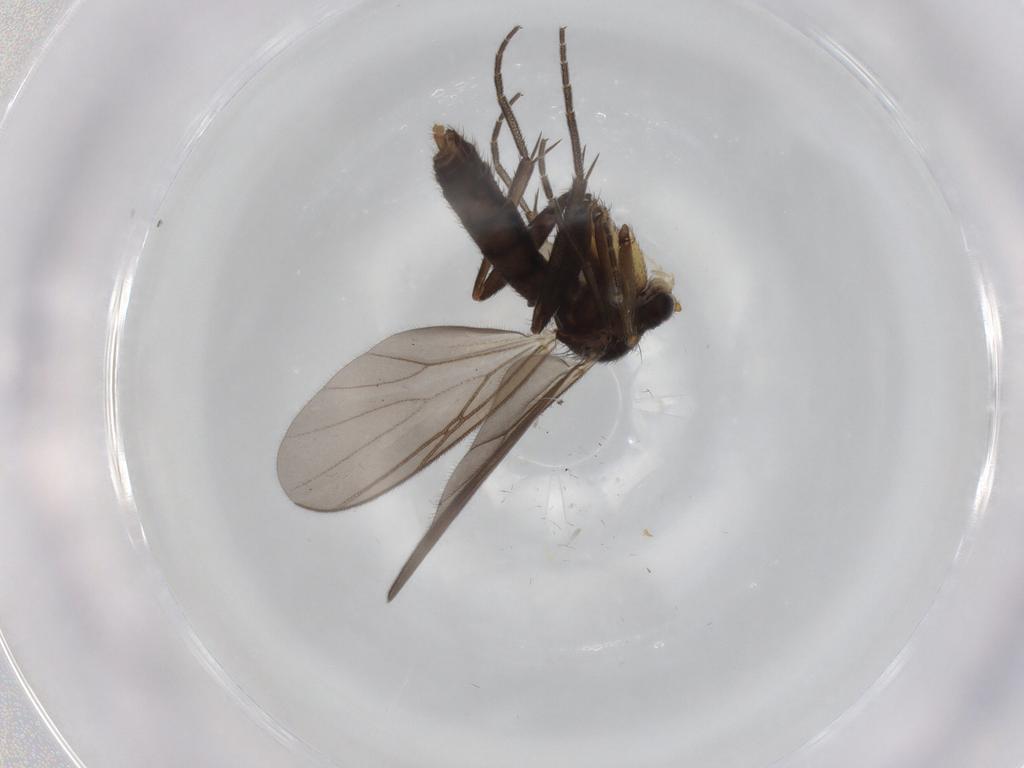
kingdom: Animalia
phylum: Arthropoda
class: Insecta
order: Diptera
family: Mycetophilidae
